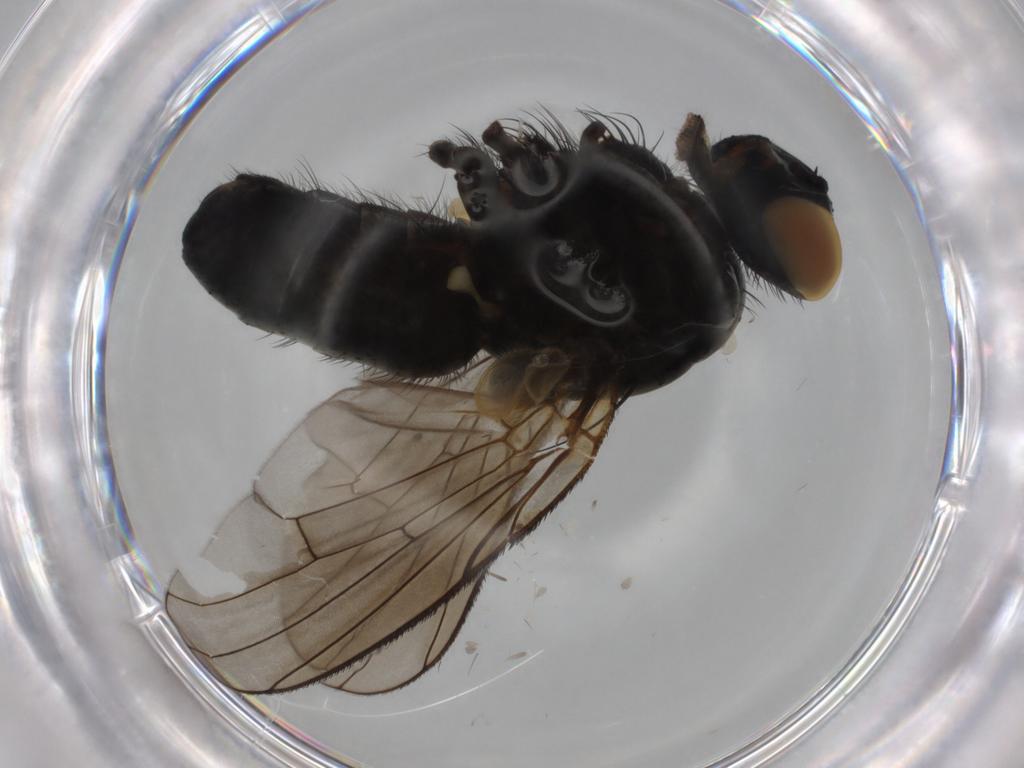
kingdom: Animalia
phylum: Arthropoda
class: Insecta
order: Diptera
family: Muscidae
